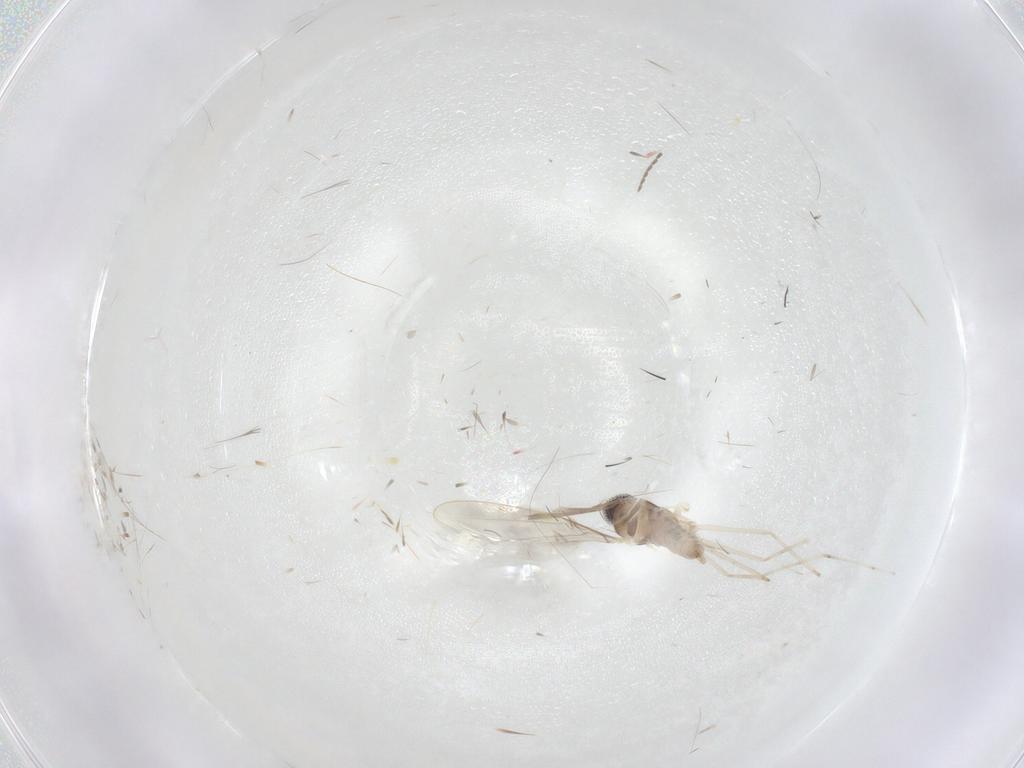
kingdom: Animalia
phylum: Arthropoda
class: Insecta
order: Diptera
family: Cecidomyiidae
